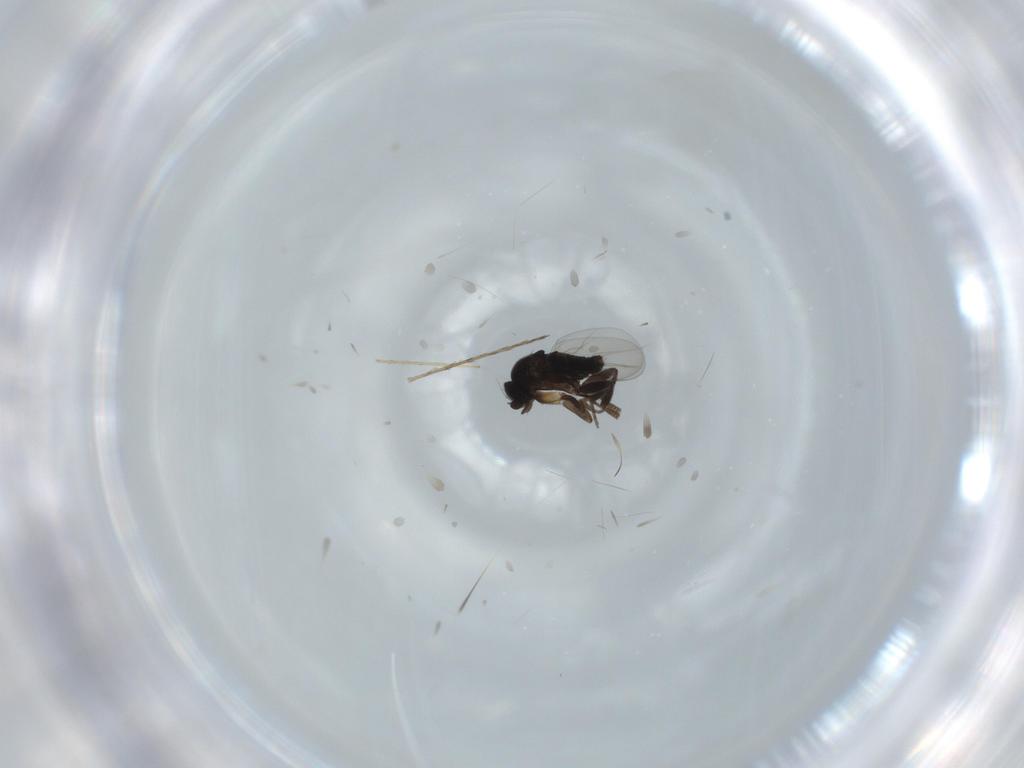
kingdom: Animalia
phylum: Arthropoda
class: Insecta
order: Diptera
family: Phoridae
